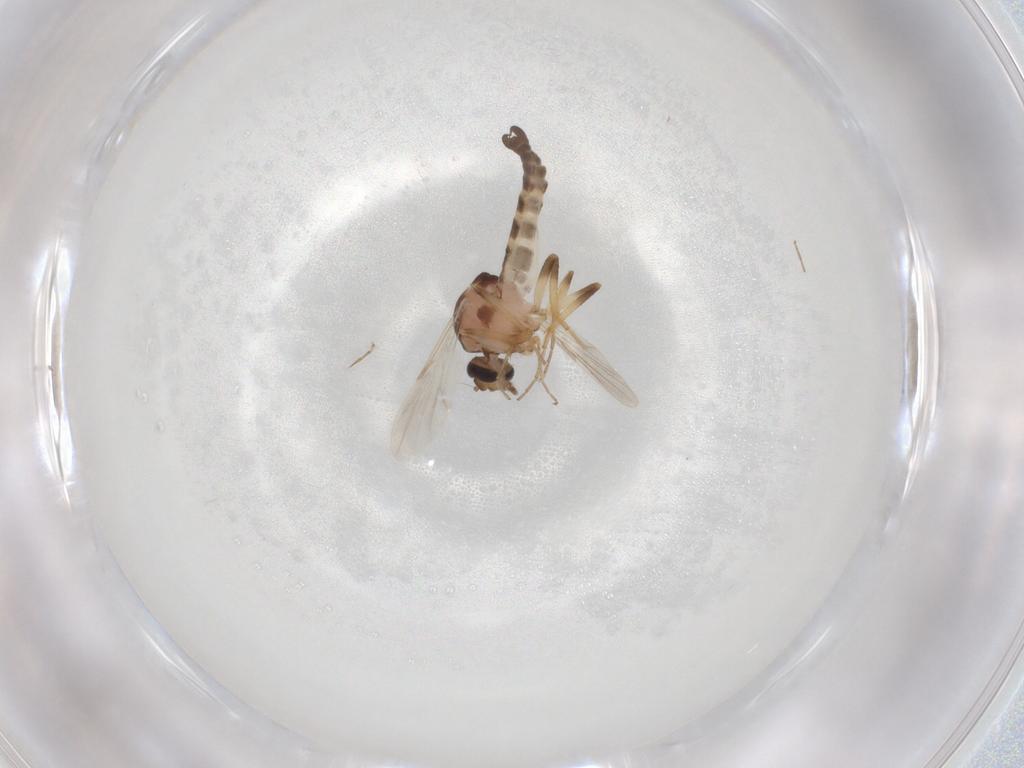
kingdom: Animalia
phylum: Arthropoda
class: Insecta
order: Diptera
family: Ceratopogonidae
